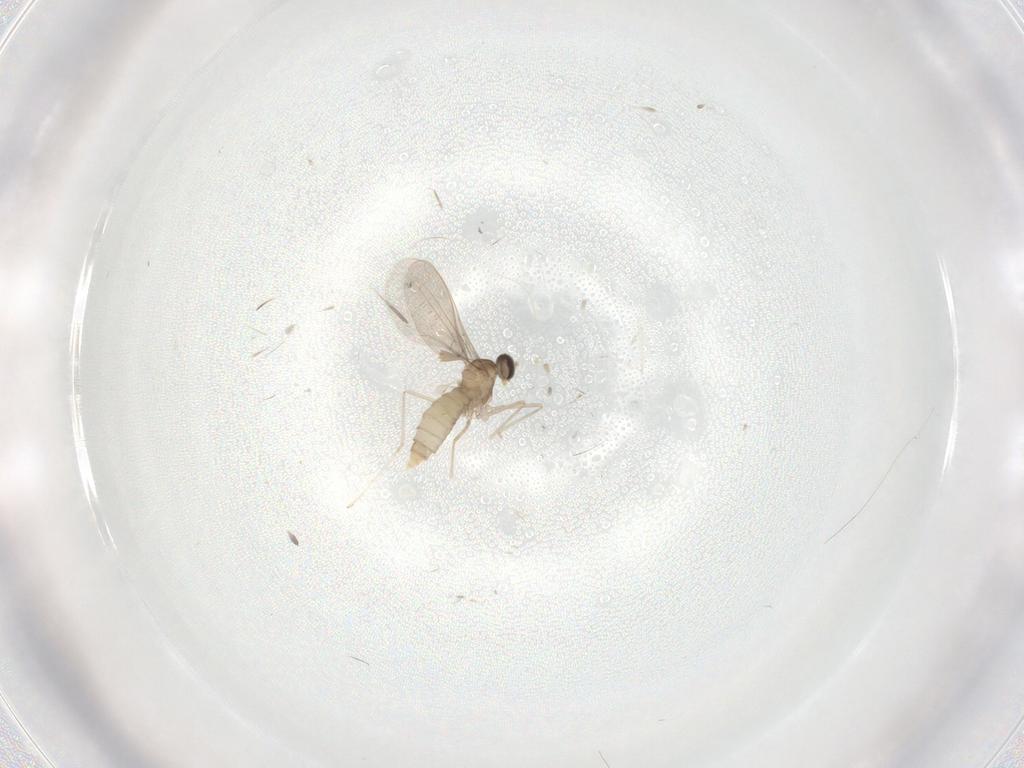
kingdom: Animalia
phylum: Arthropoda
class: Insecta
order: Diptera
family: Cecidomyiidae
